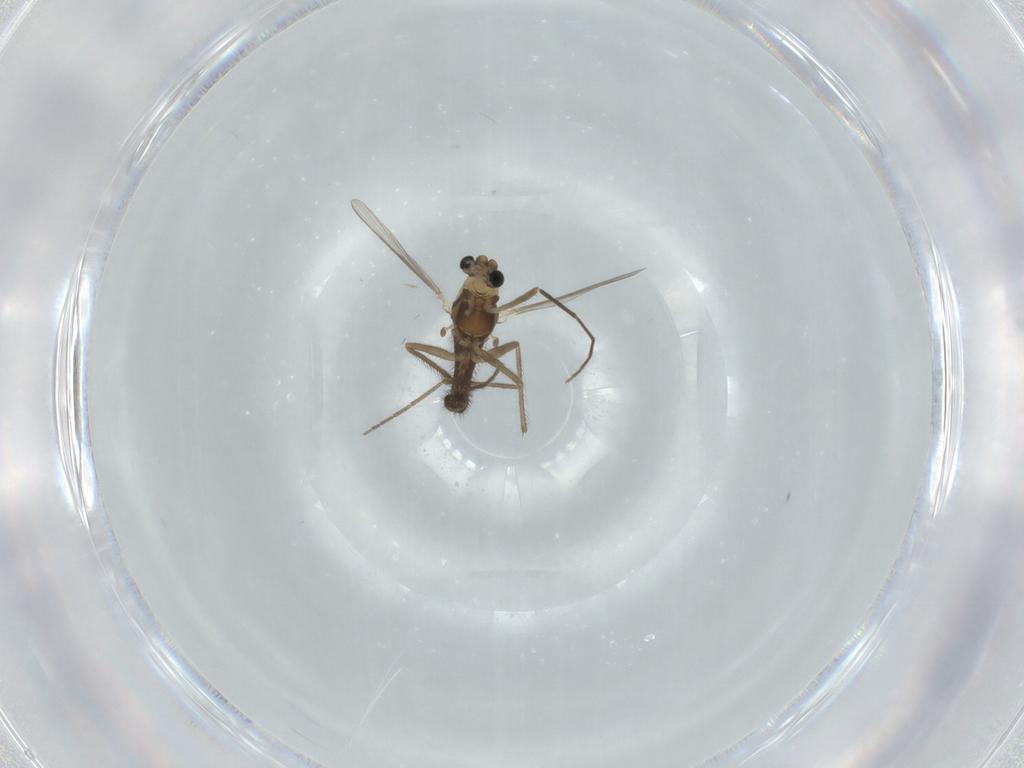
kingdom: Animalia
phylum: Arthropoda
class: Insecta
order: Diptera
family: Chironomidae
